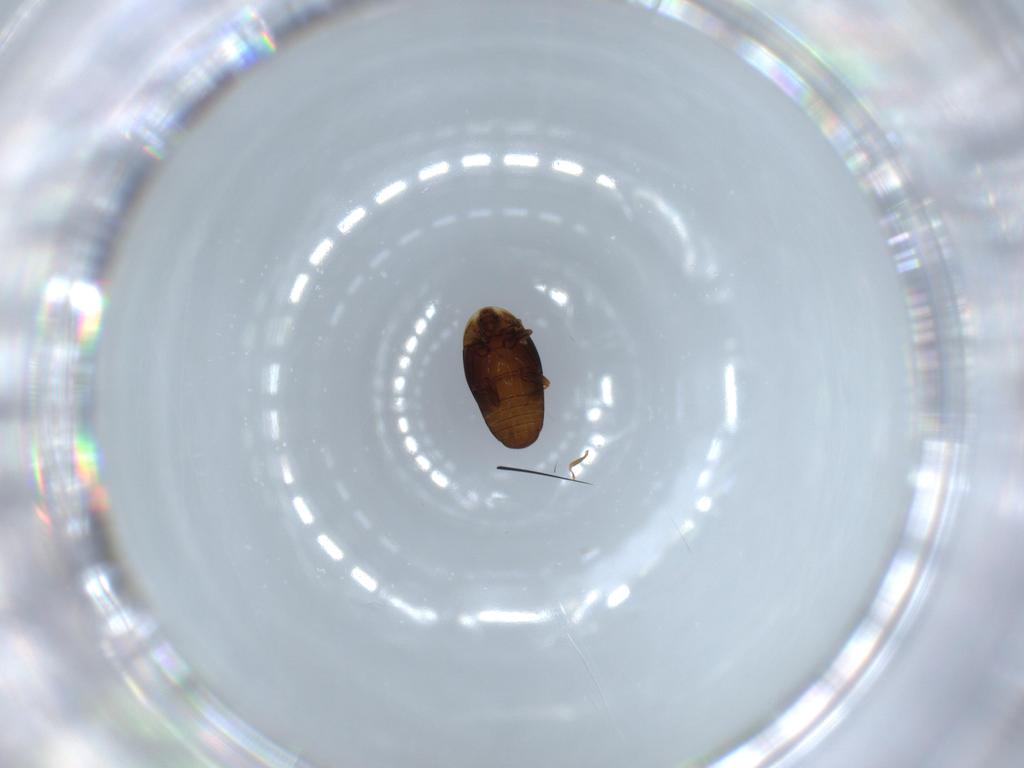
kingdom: Animalia
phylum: Arthropoda
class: Insecta
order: Coleoptera
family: Corylophidae
